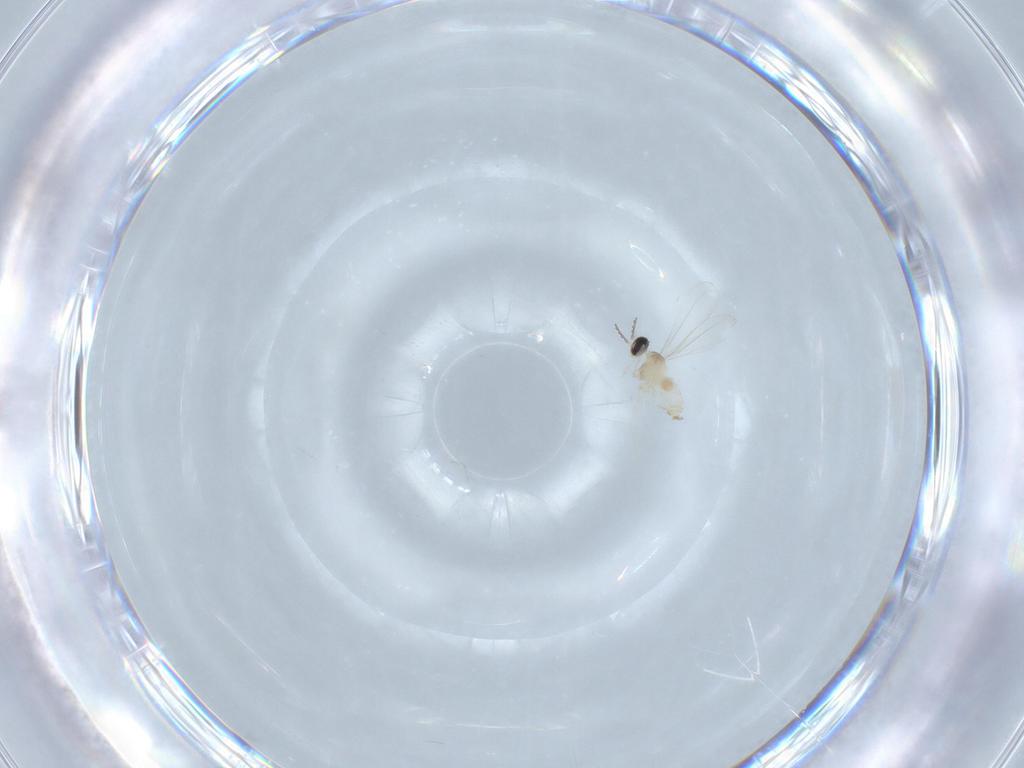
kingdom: Animalia
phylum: Arthropoda
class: Insecta
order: Diptera
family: Cecidomyiidae
